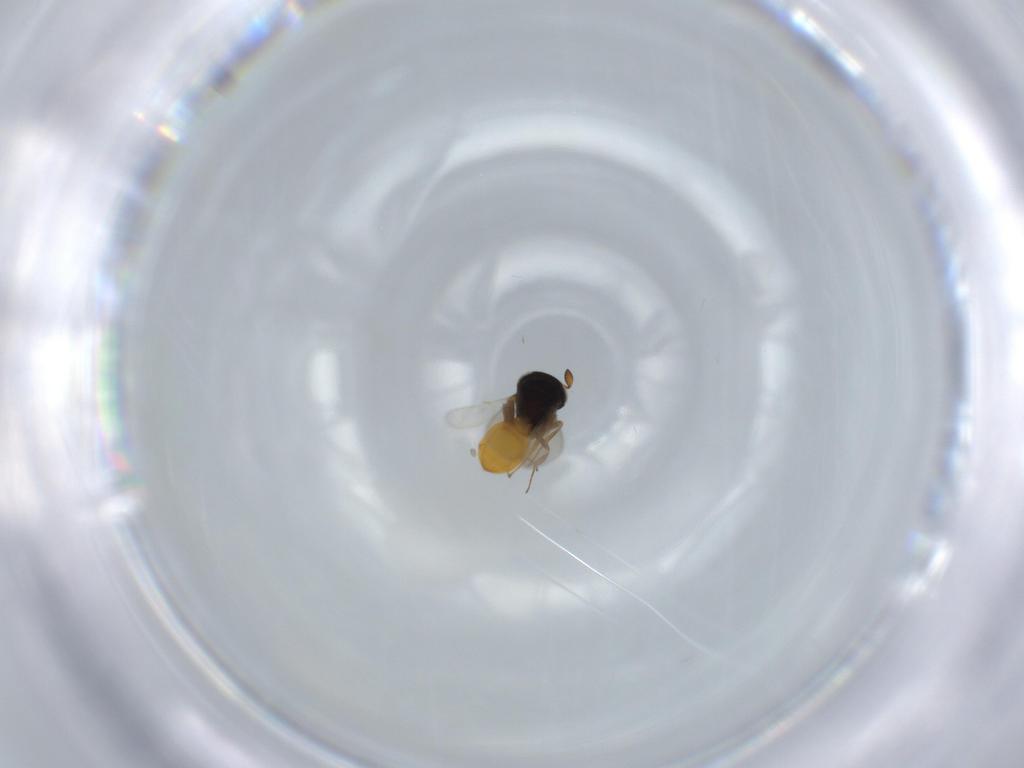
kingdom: Animalia
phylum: Arthropoda
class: Insecta
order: Hymenoptera
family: Scelionidae
